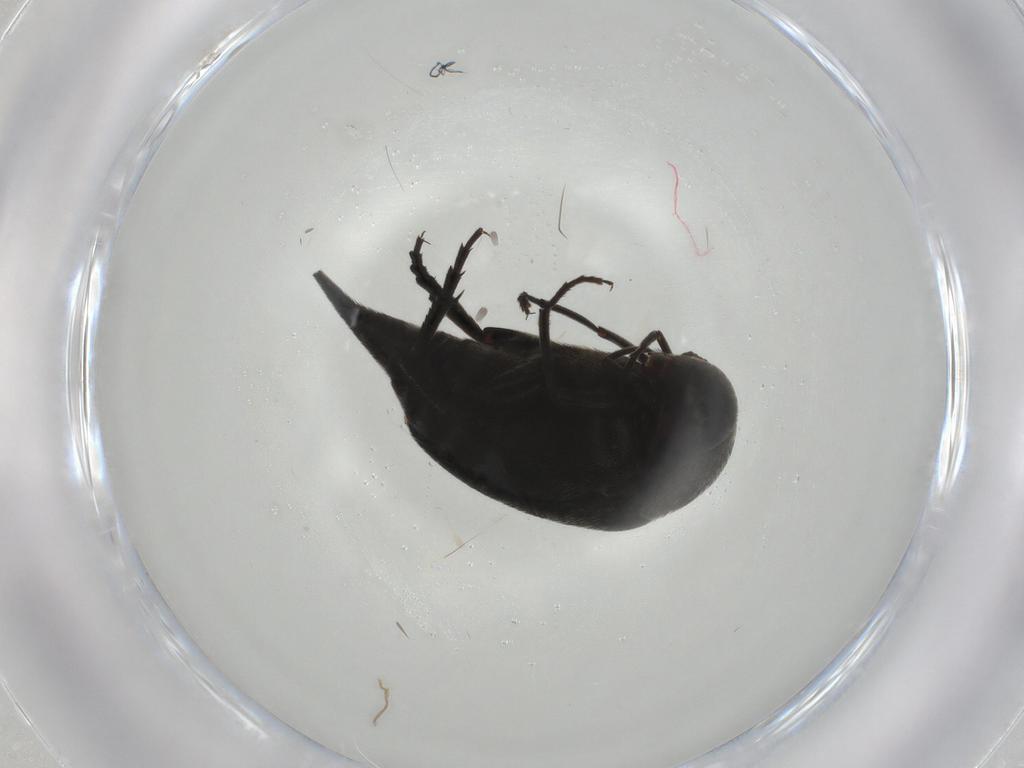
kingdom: Animalia
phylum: Arthropoda
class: Insecta
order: Coleoptera
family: Mordellidae
